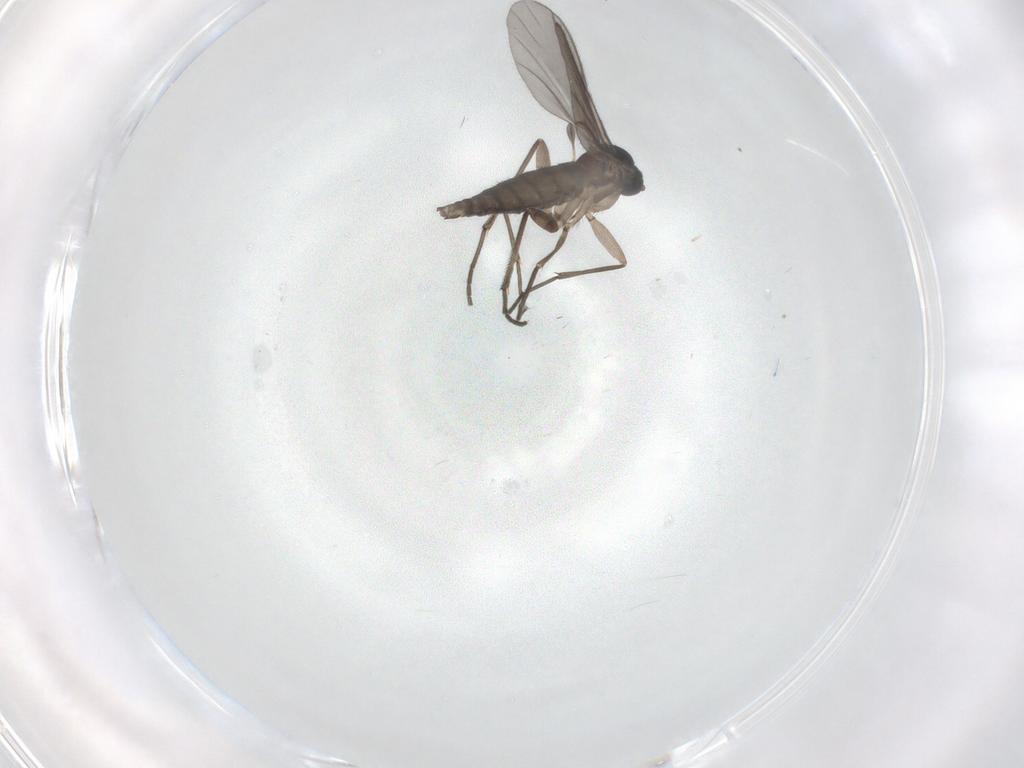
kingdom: Animalia
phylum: Arthropoda
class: Insecta
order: Diptera
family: Sciaridae
